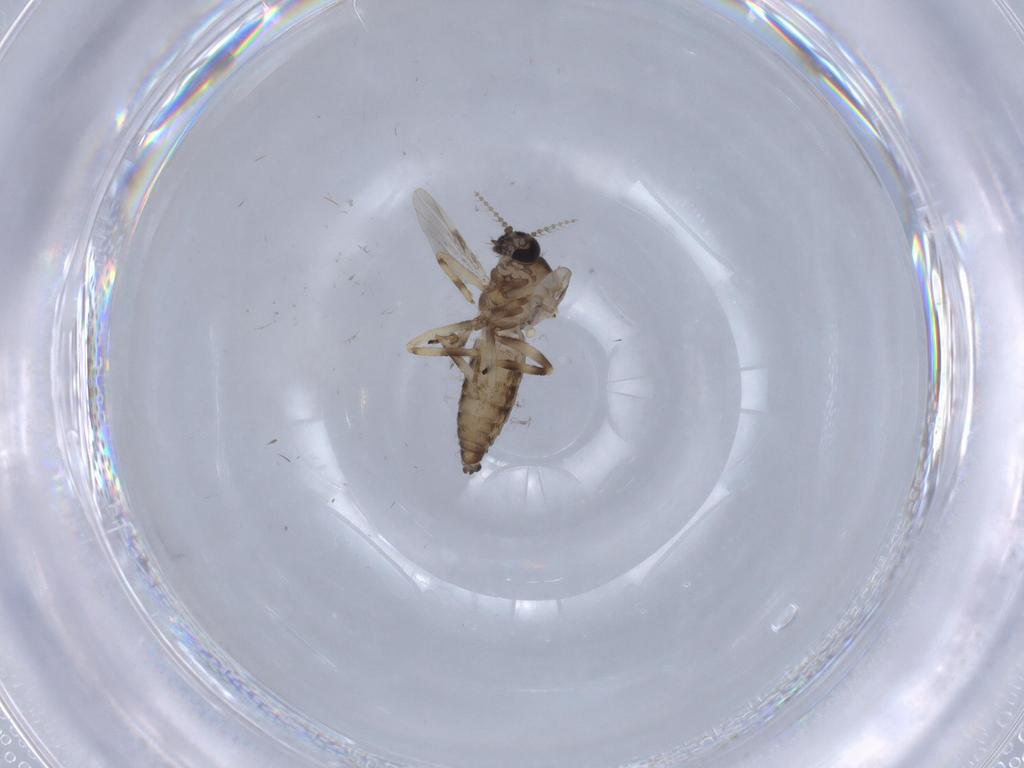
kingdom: Animalia
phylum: Arthropoda
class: Insecta
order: Diptera
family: Ceratopogonidae
